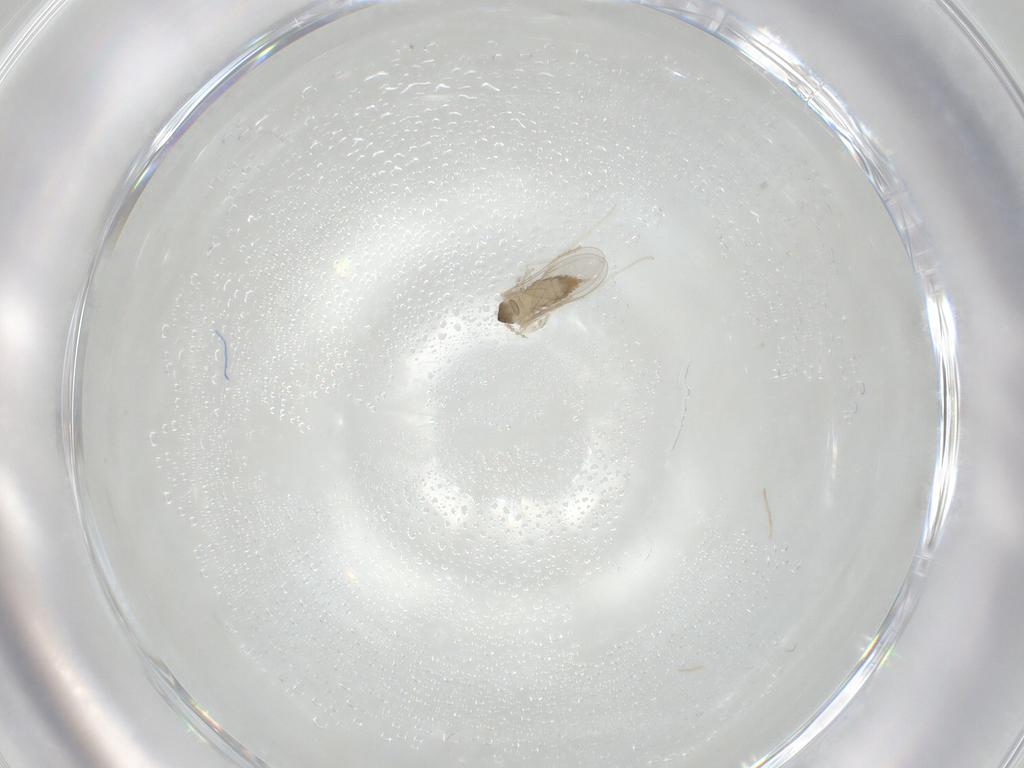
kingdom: Animalia
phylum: Arthropoda
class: Insecta
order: Diptera
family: Cecidomyiidae
